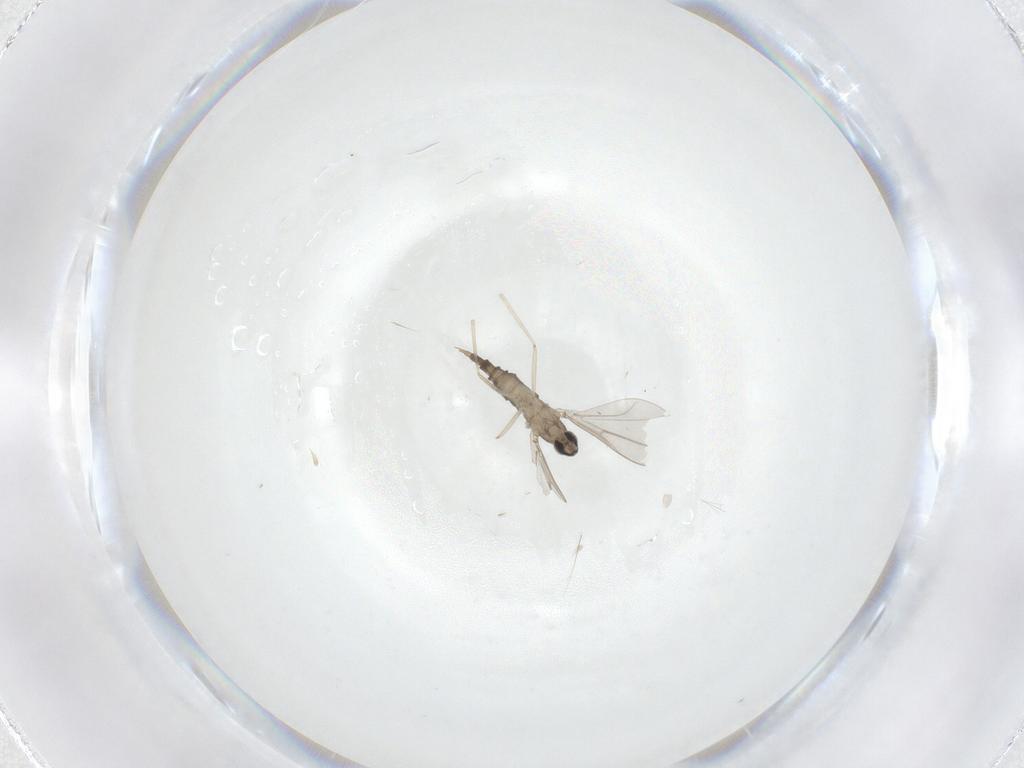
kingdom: Animalia
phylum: Arthropoda
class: Insecta
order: Diptera
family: Cecidomyiidae
